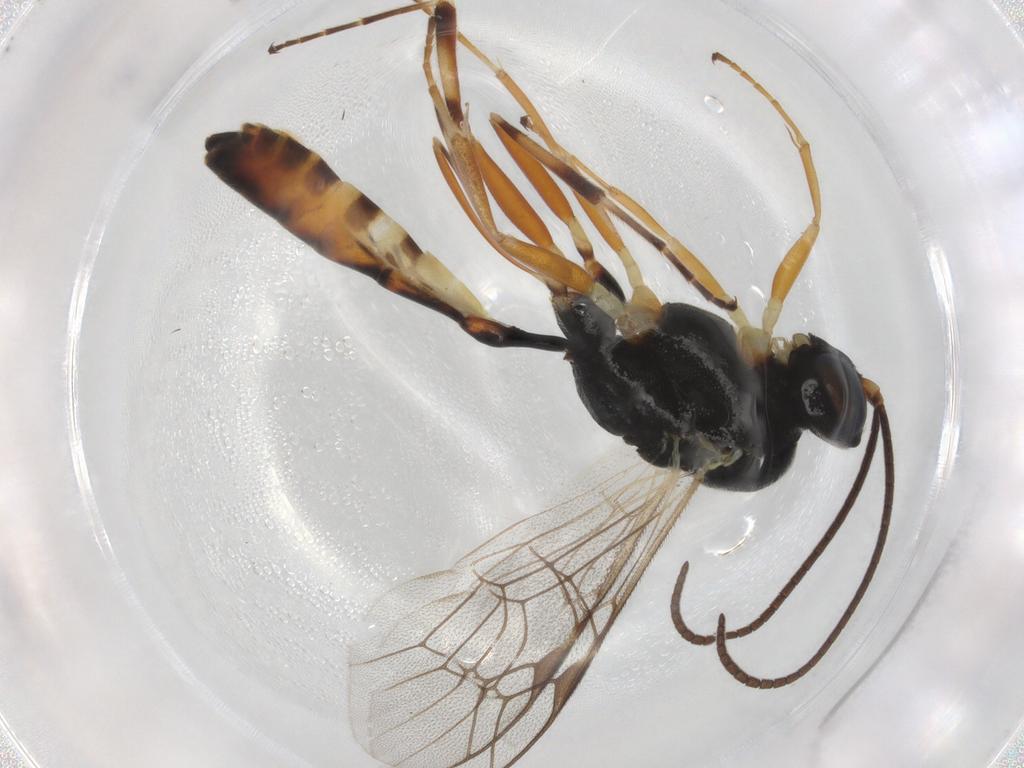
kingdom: Animalia
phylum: Arthropoda
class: Insecta
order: Hymenoptera
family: Ichneumonidae
